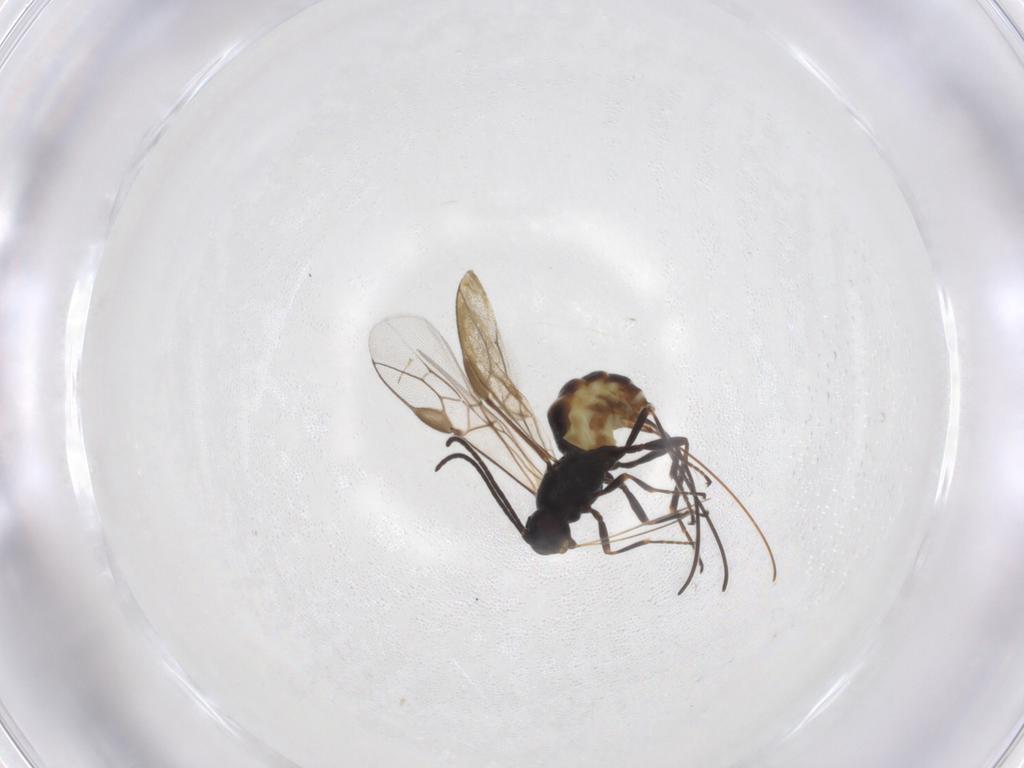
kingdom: Animalia
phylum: Arthropoda
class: Insecta
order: Hymenoptera
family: Braconidae
